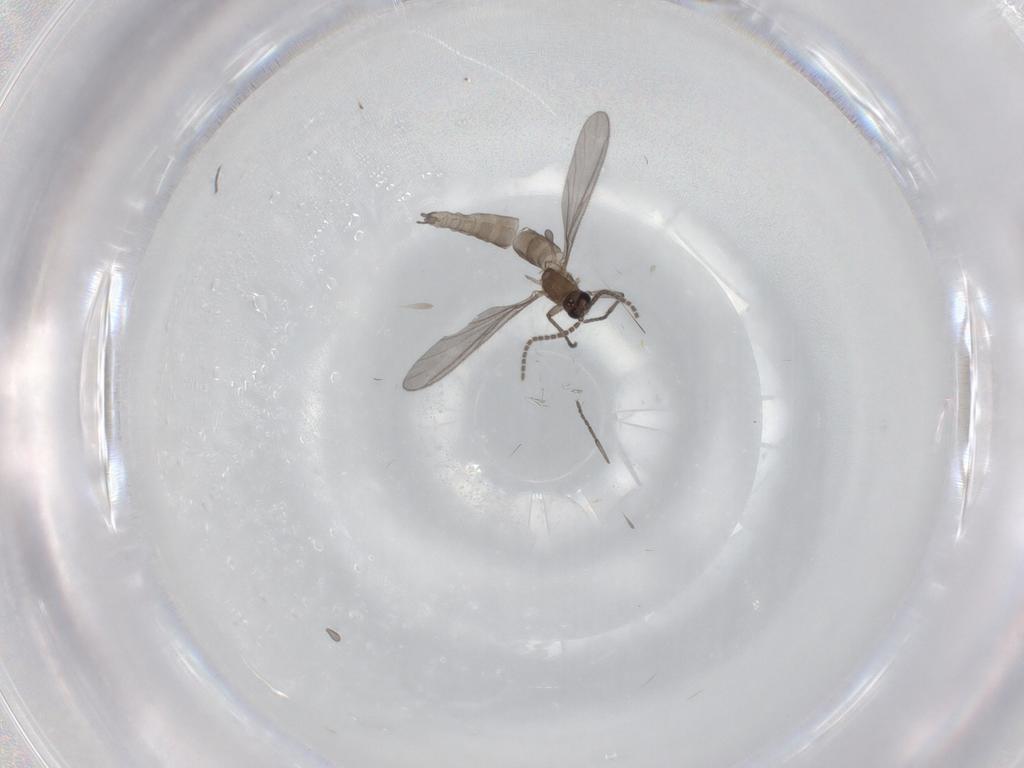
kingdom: Animalia
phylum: Arthropoda
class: Insecta
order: Diptera
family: Sciaridae
